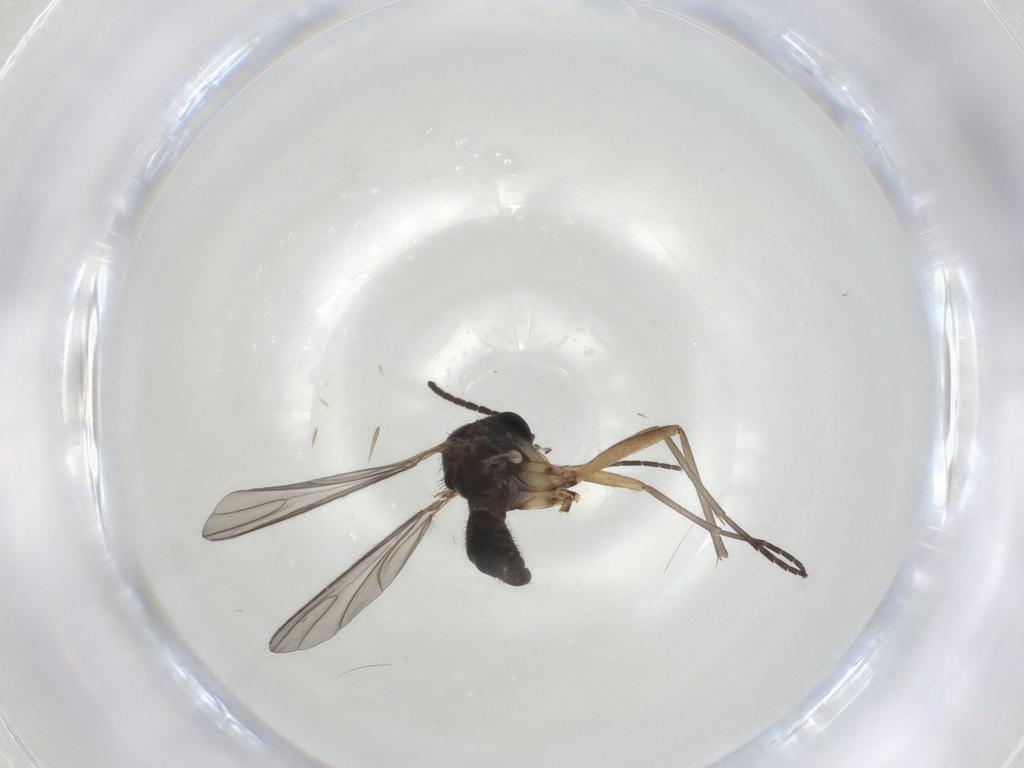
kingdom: Animalia
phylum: Arthropoda
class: Insecta
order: Diptera
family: Sciaridae
